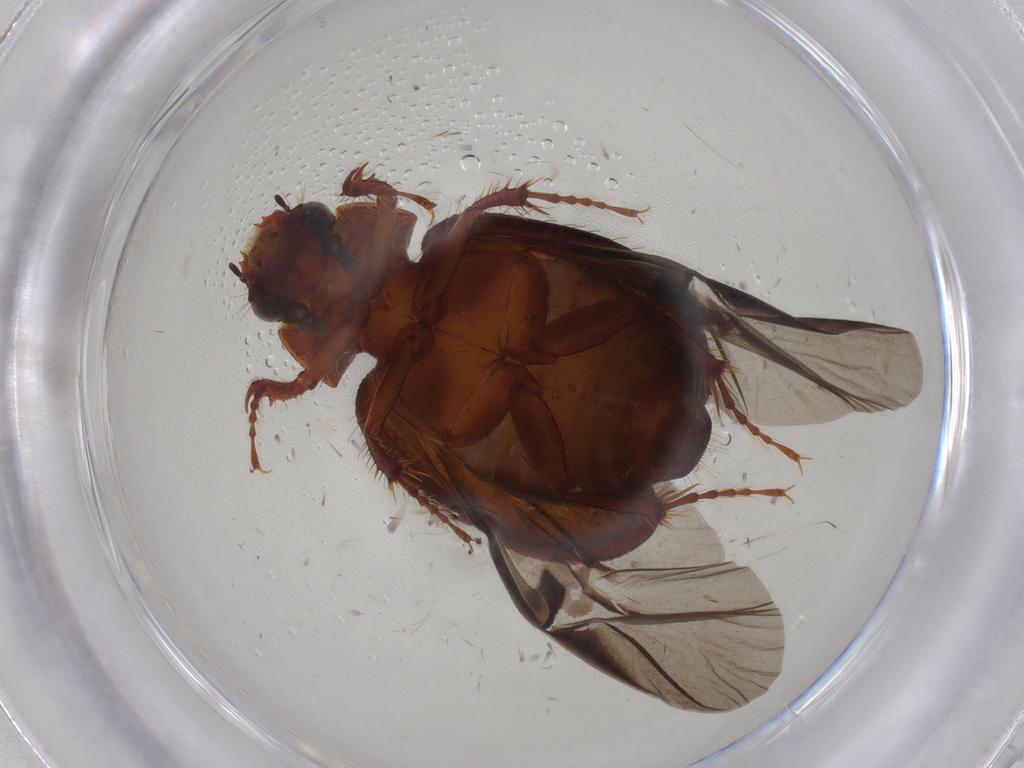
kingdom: Animalia
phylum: Arthropoda
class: Insecta
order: Coleoptera
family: Hybosoridae
